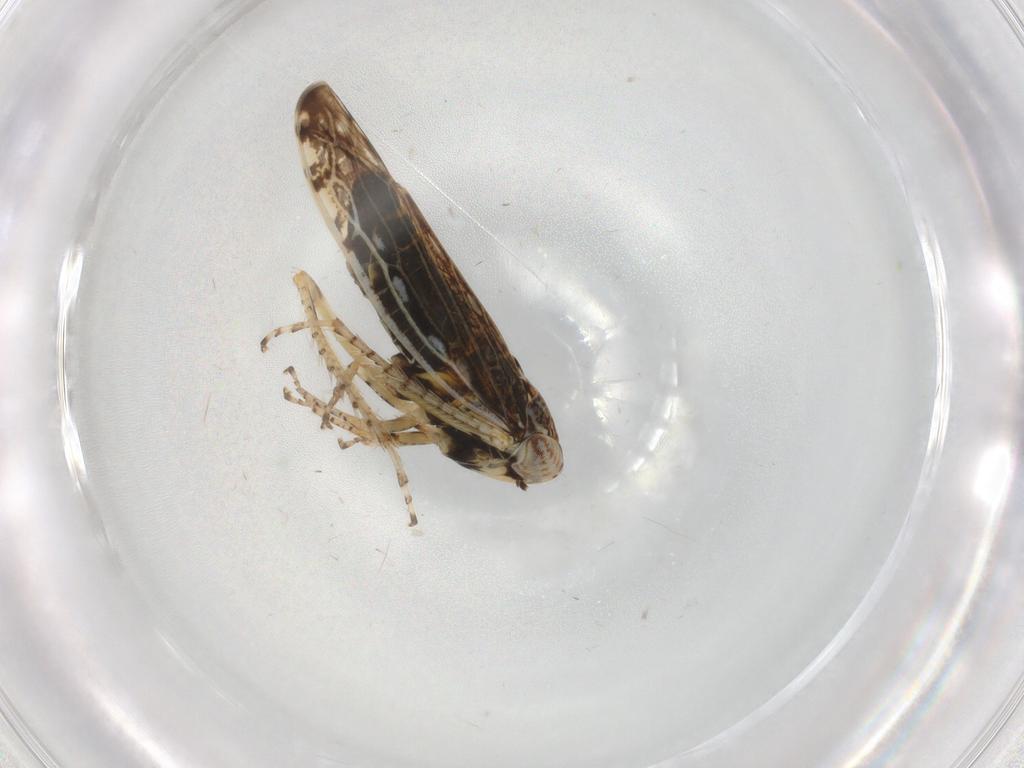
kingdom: Animalia
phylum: Arthropoda
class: Insecta
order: Hemiptera
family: Cicadellidae
